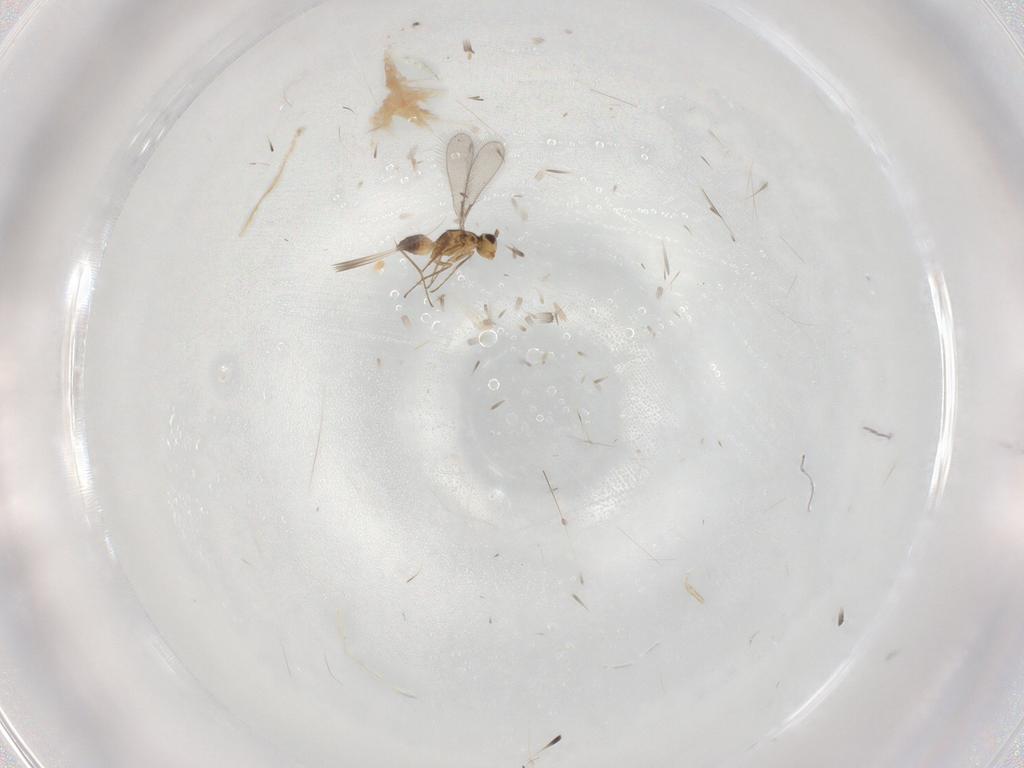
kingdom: Animalia
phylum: Arthropoda
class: Insecta
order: Hymenoptera
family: Mymaridae
